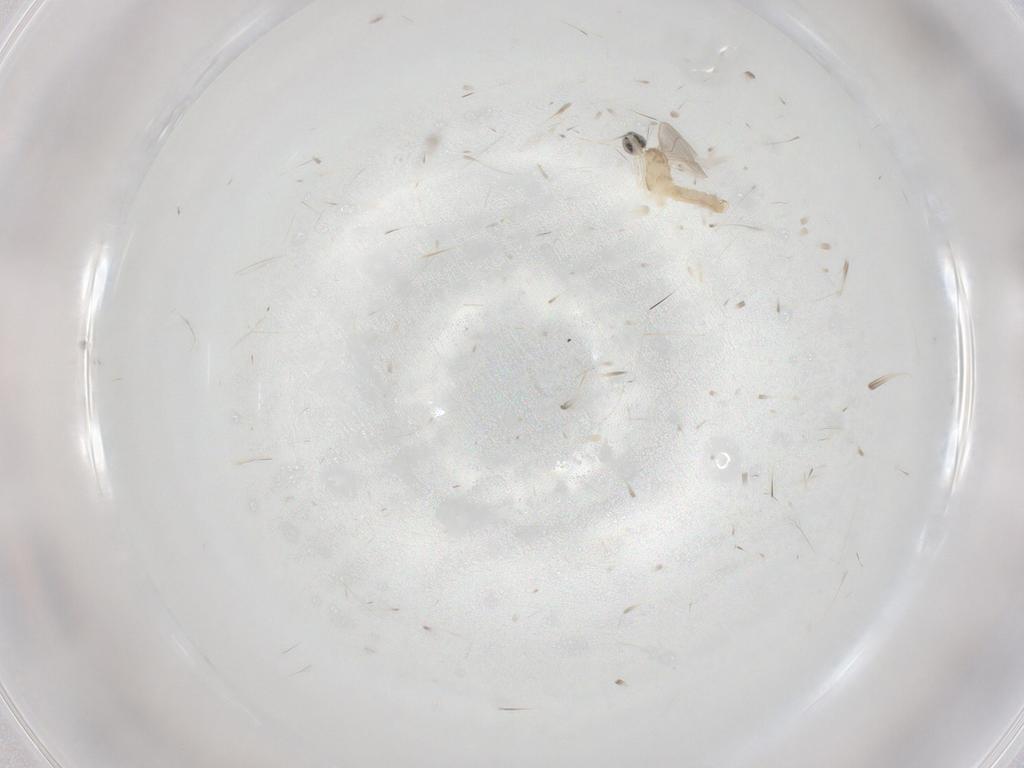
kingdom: Animalia
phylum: Arthropoda
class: Insecta
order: Diptera
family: Cecidomyiidae
